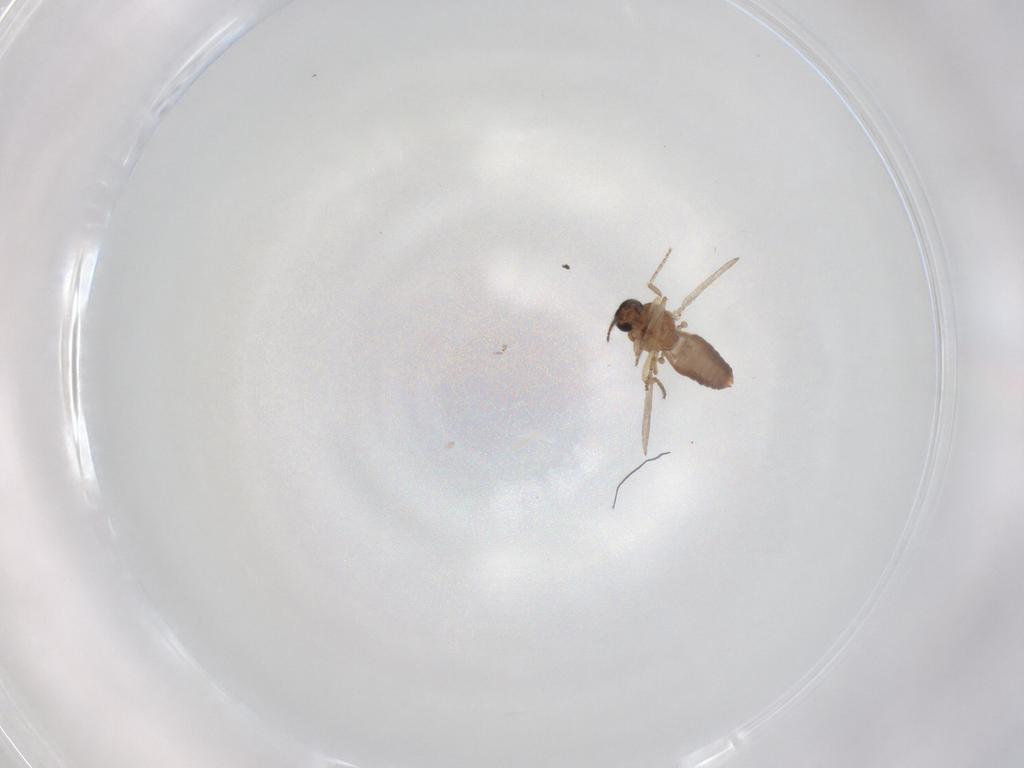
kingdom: Animalia
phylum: Arthropoda
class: Insecta
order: Diptera
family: Ceratopogonidae
